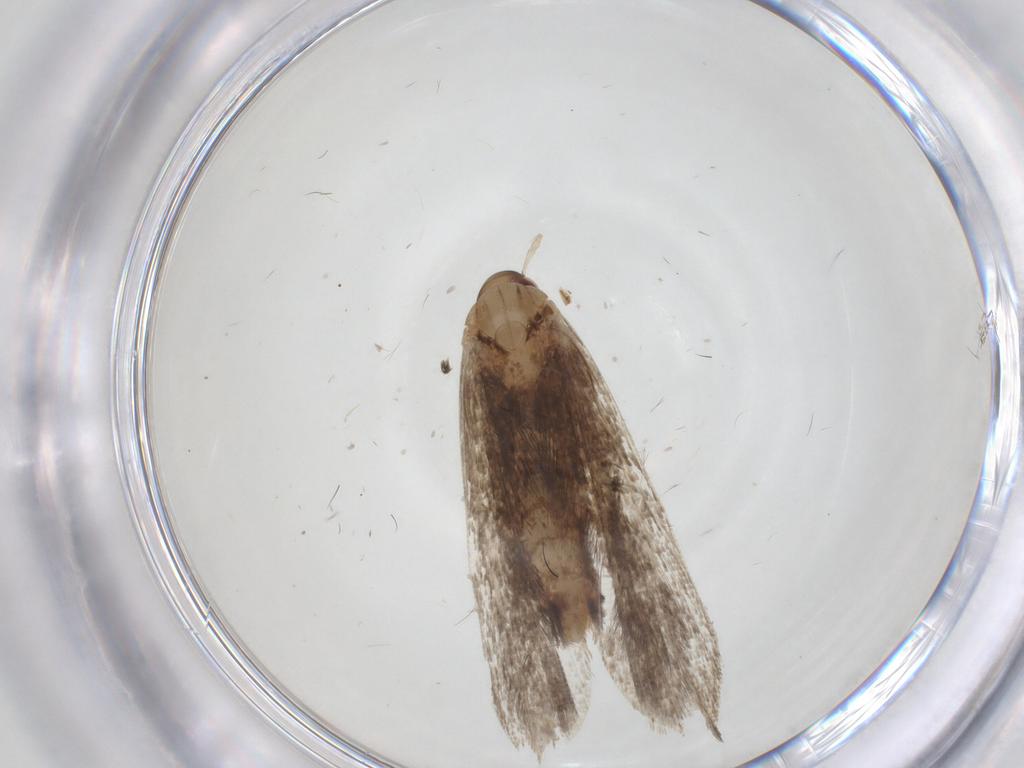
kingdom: Animalia
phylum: Arthropoda
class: Insecta
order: Lepidoptera
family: Gelechiidae
